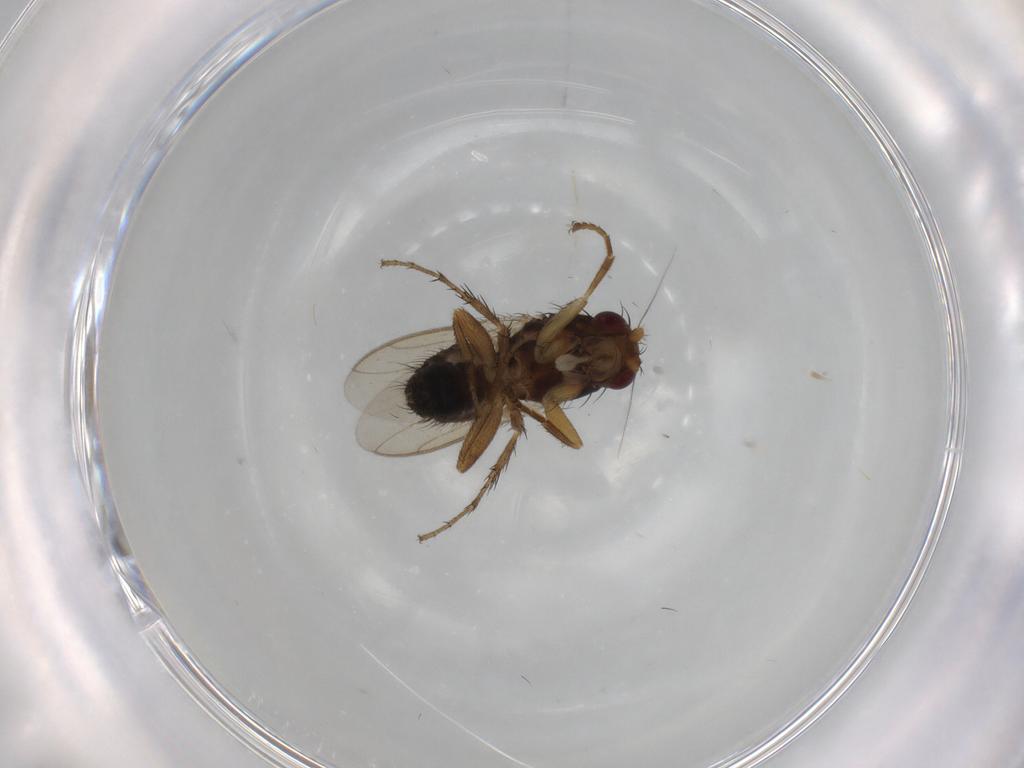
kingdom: Animalia
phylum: Arthropoda
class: Insecta
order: Diptera
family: Sphaeroceridae
